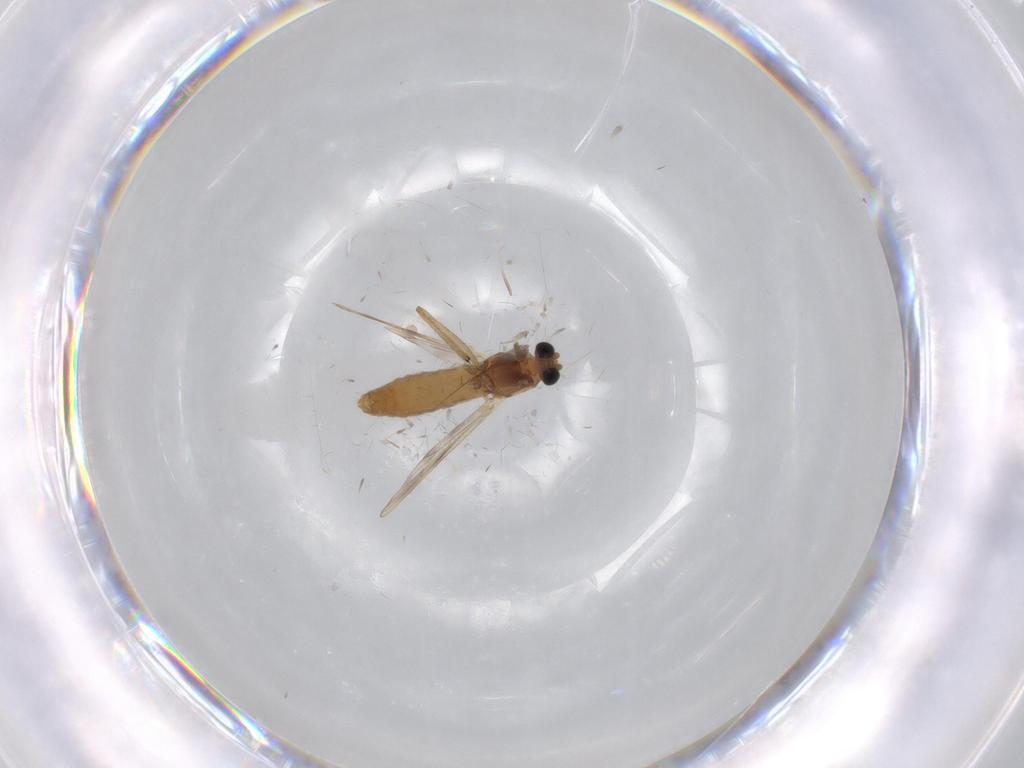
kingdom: Animalia
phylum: Arthropoda
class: Insecta
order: Diptera
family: Chironomidae
